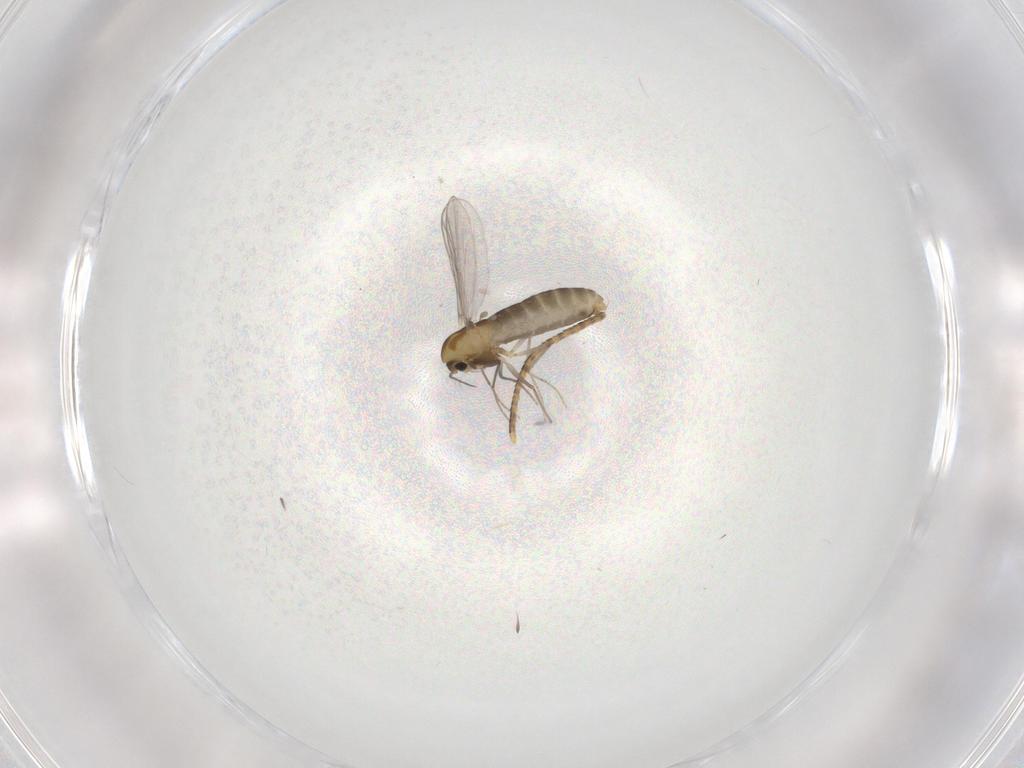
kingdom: Animalia
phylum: Arthropoda
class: Insecta
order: Diptera
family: Chironomidae
